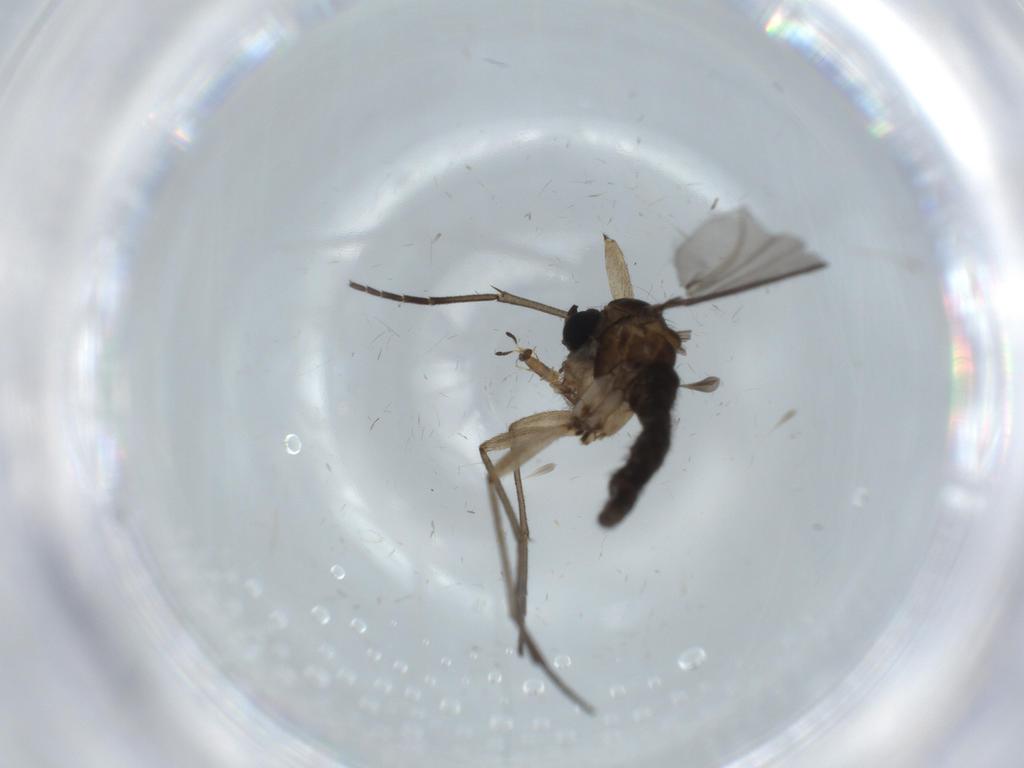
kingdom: Animalia
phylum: Arthropoda
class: Insecta
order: Diptera
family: Sciaridae
